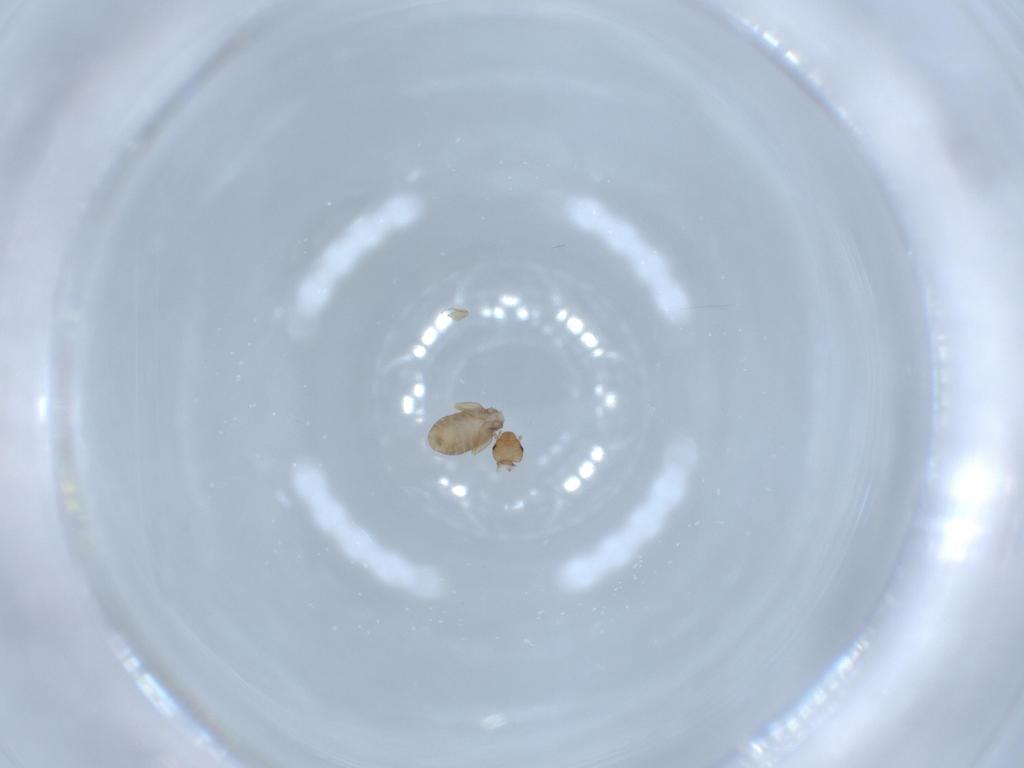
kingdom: Animalia
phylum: Arthropoda
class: Insecta
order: Psocodea
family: Liposcelididae
